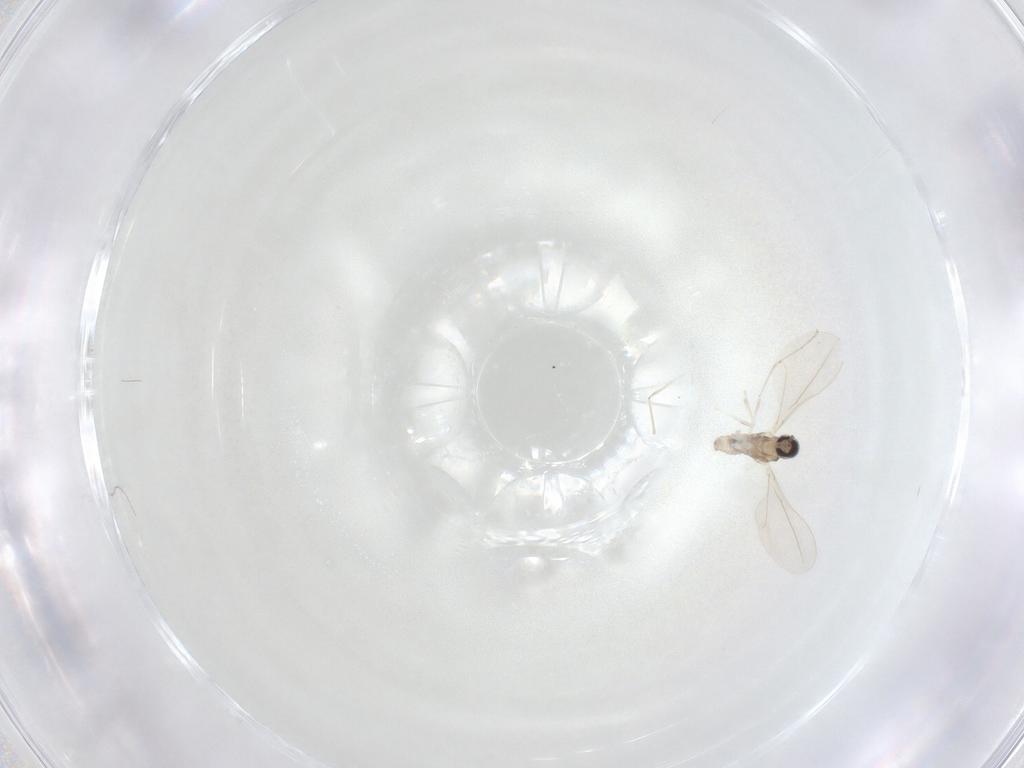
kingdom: Animalia
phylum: Arthropoda
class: Insecta
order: Diptera
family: Phoridae
